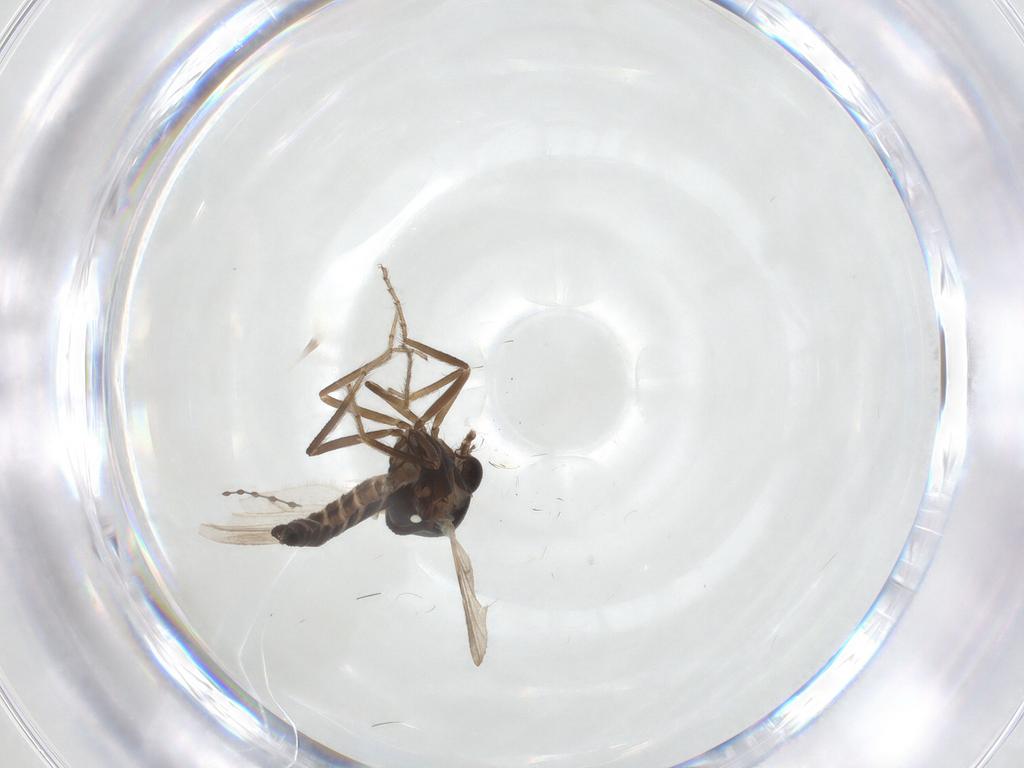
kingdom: Animalia
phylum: Arthropoda
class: Insecta
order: Diptera
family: Ceratopogonidae
